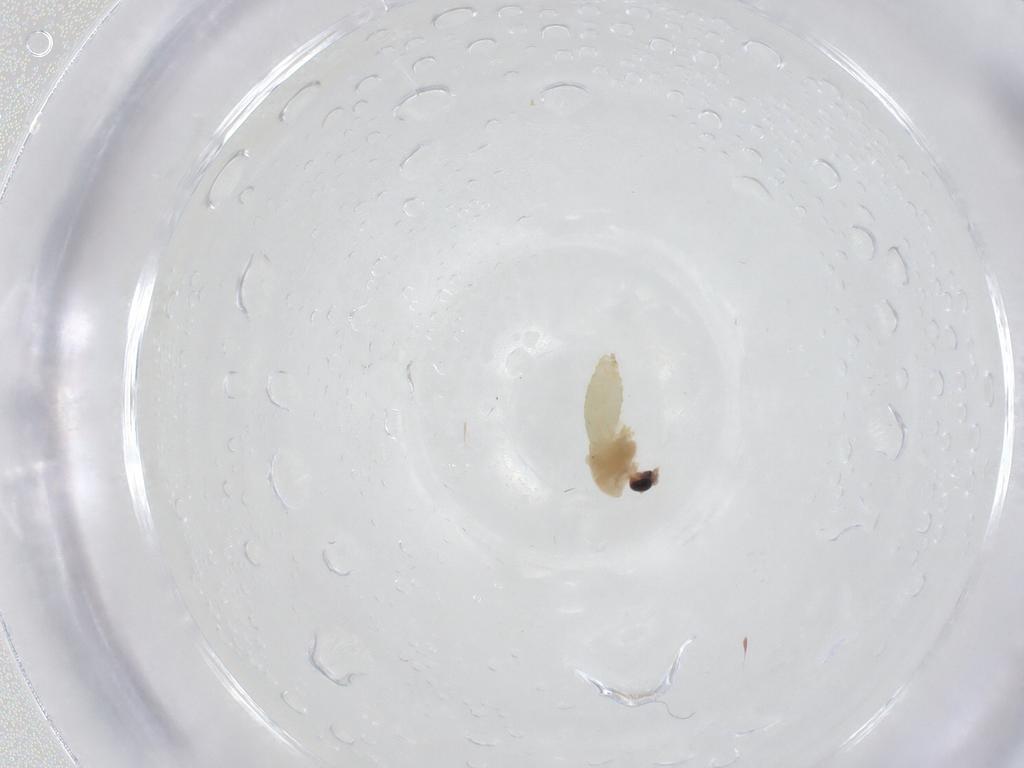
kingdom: Animalia
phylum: Arthropoda
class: Insecta
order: Diptera
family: Chironomidae
